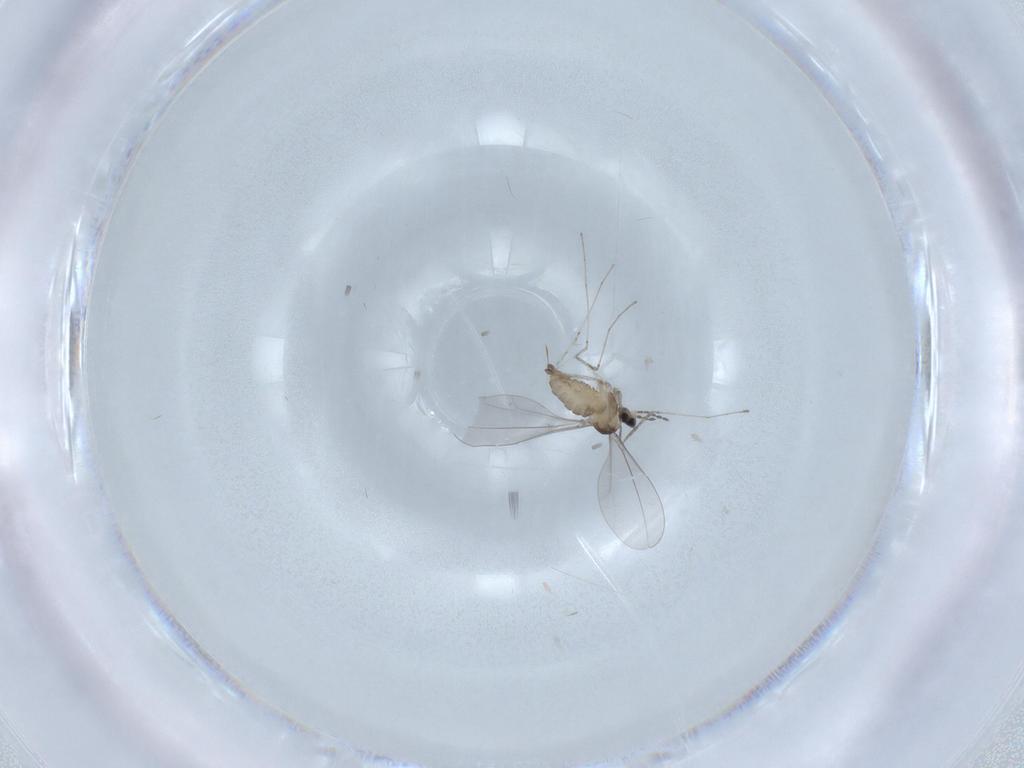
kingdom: Animalia
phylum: Arthropoda
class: Insecta
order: Diptera
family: Cecidomyiidae
